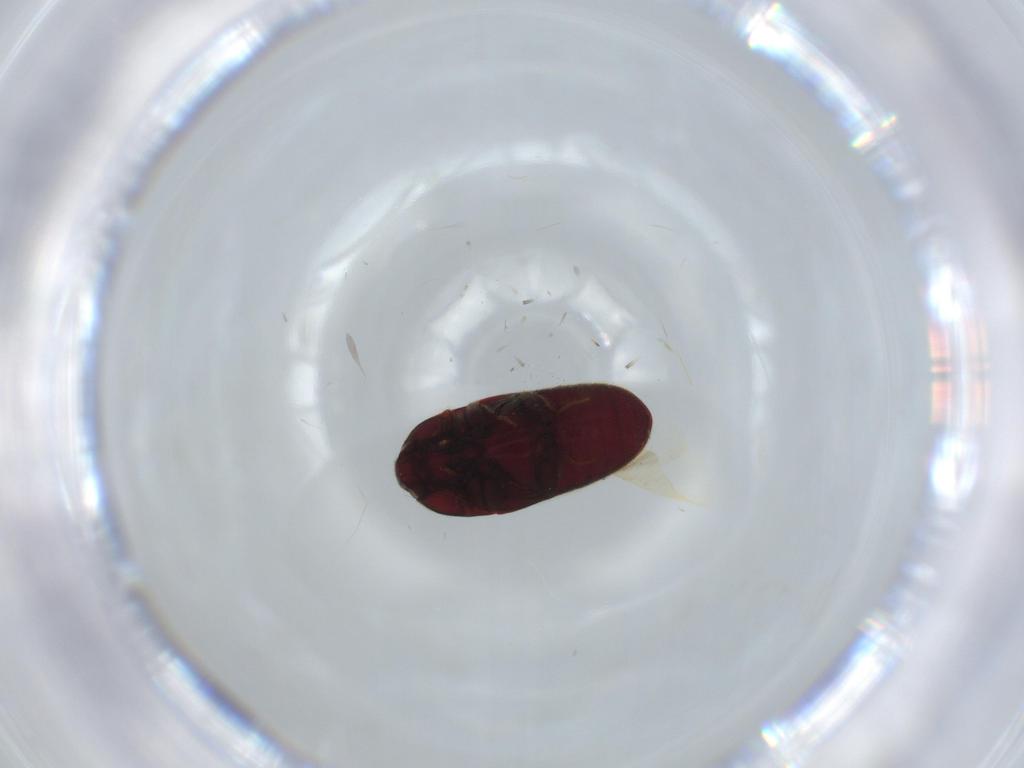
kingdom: Animalia
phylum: Arthropoda
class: Insecta
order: Coleoptera
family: Throscidae
